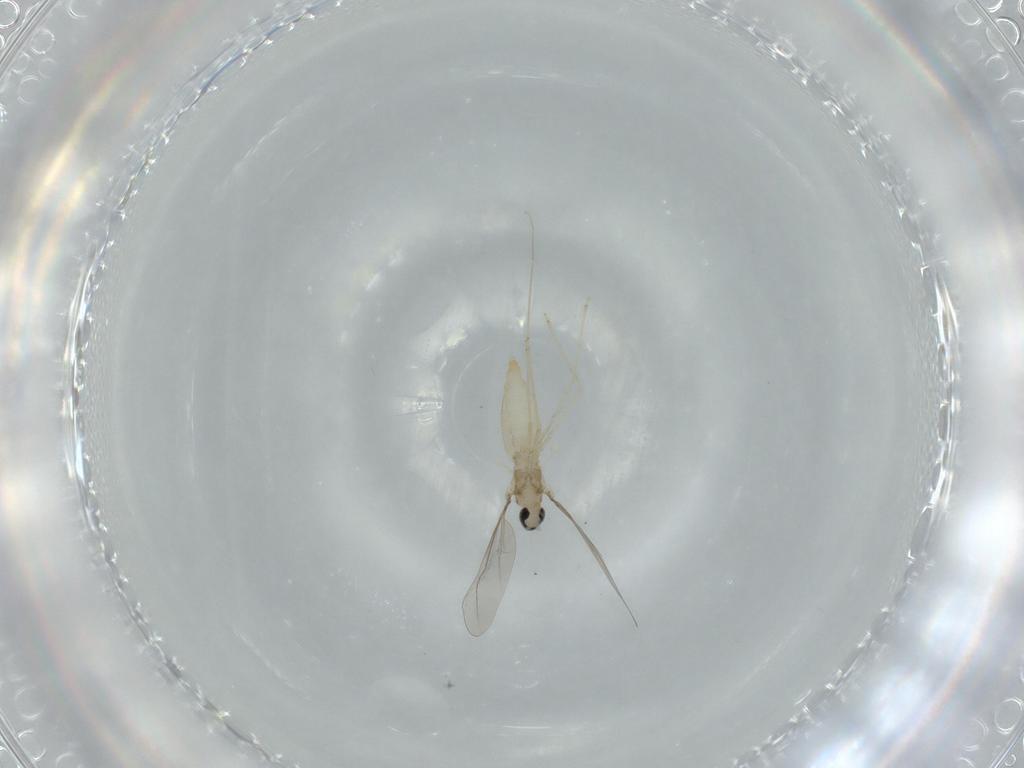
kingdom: Animalia
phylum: Arthropoda
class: Insecta
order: Diptera
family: Cecidomyiidae
